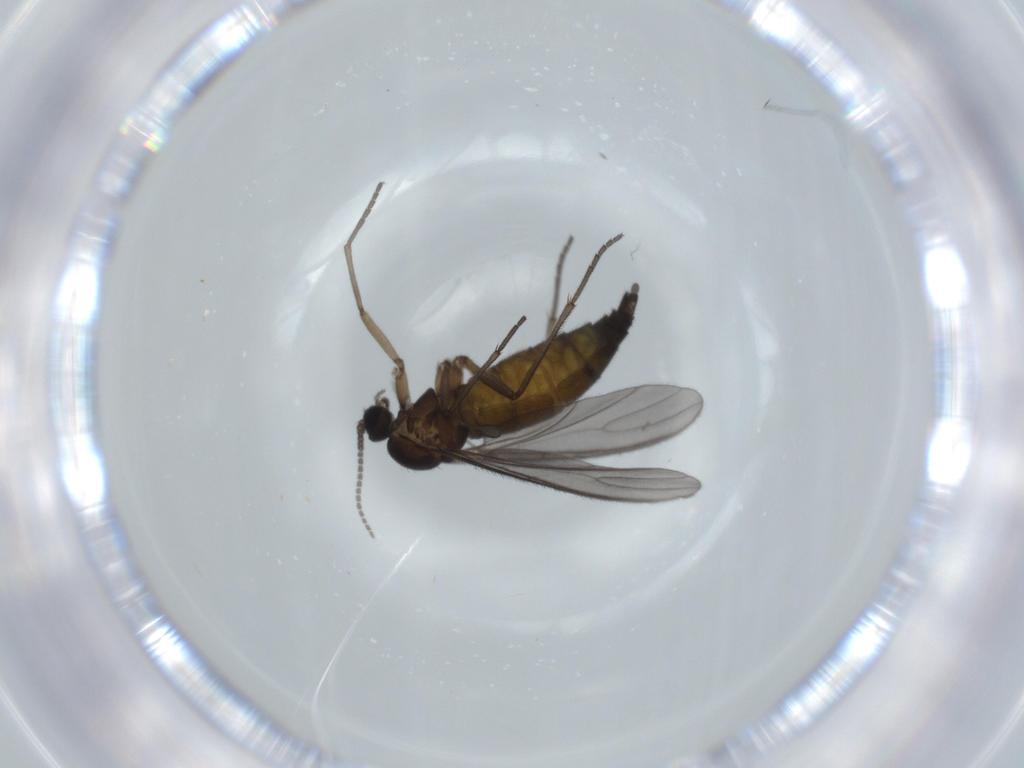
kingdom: Animalia
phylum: Arthropoda
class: Insecta
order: Diptera
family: Sciaridae
